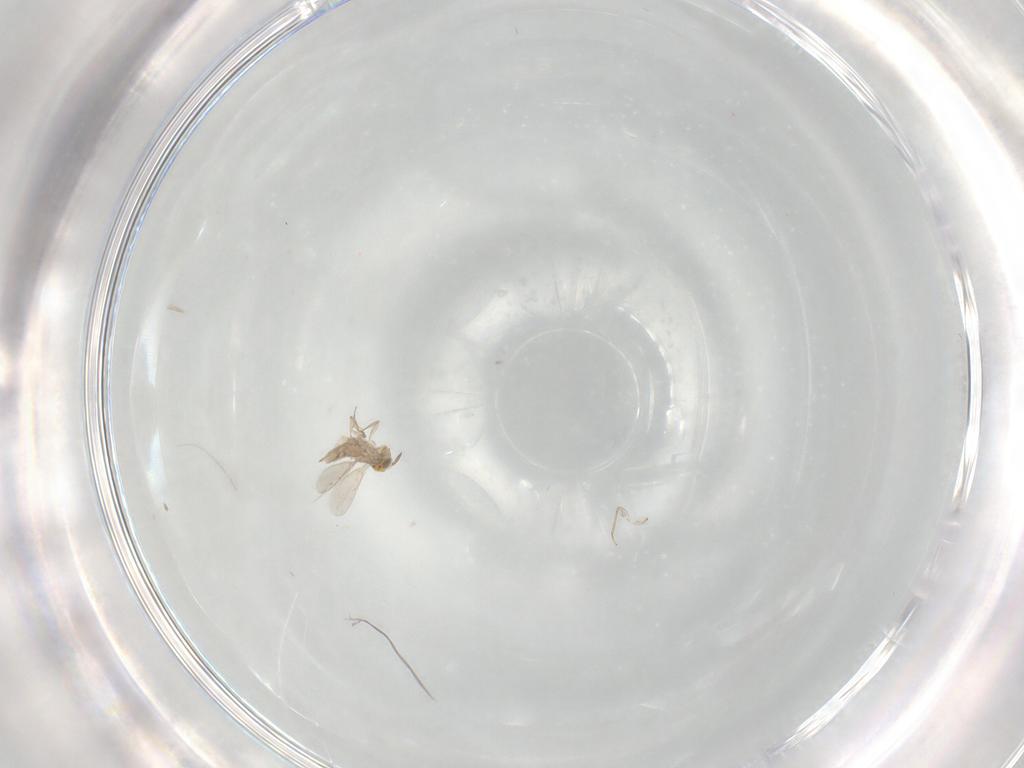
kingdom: Animalia
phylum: Arthropoda
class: Insecta
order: Hymenoptera
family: Aphelinidae
